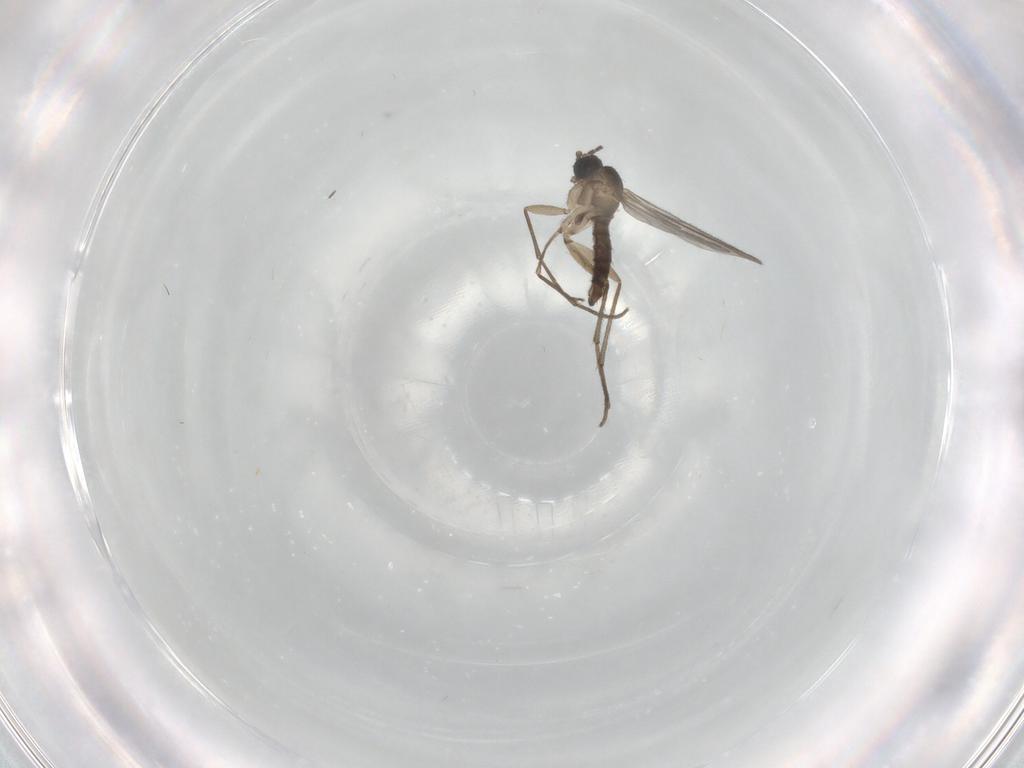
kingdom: Animalia
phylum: Arthropoda
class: Insecta
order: Diptera
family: Sciaridae
